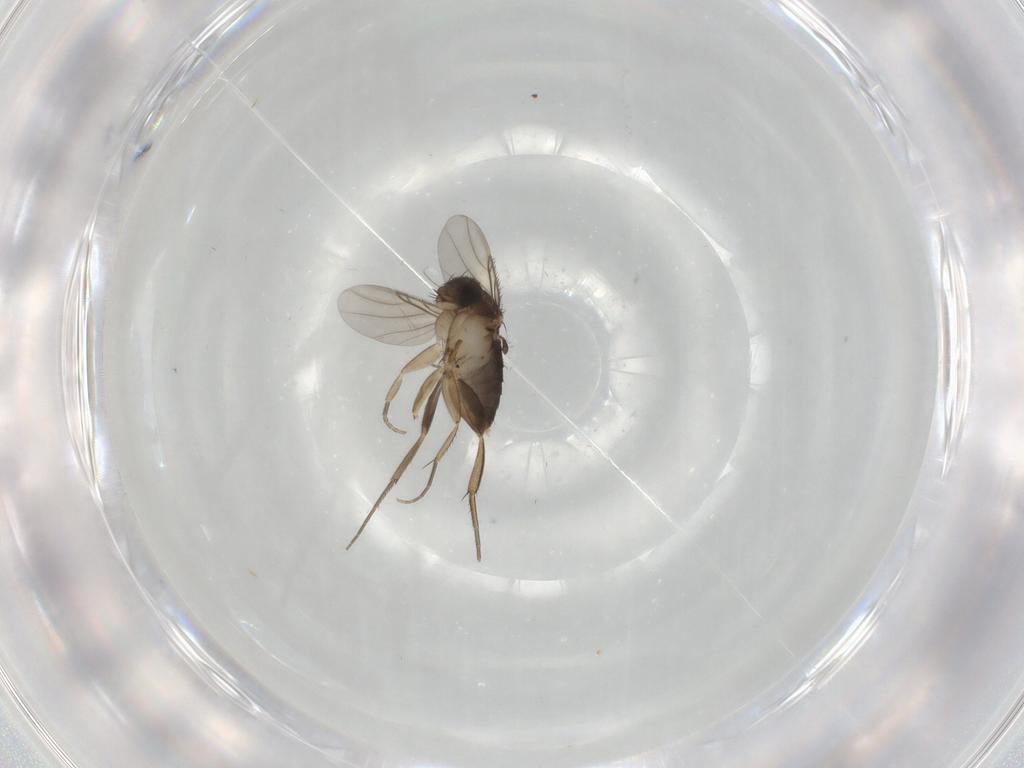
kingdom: Animalia
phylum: Arthropoda
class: Insecta
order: Diptera
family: Phoridae
